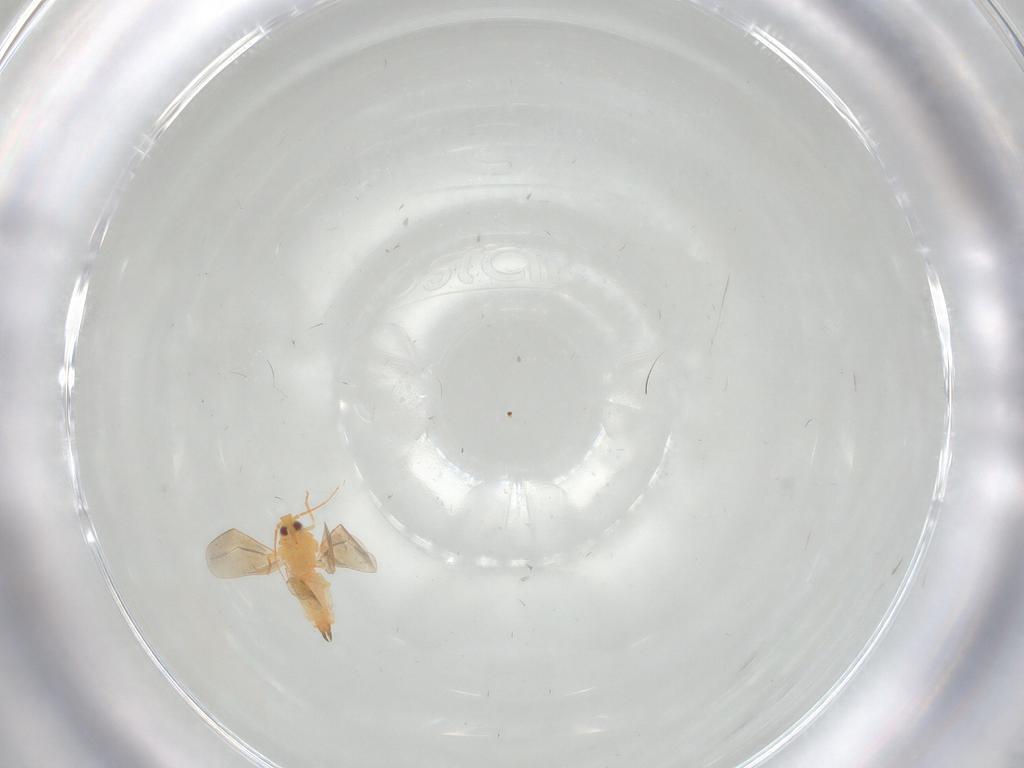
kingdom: Animalia
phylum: Arthropoda
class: Insecta
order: Hemiptera
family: Aleyrodidae
